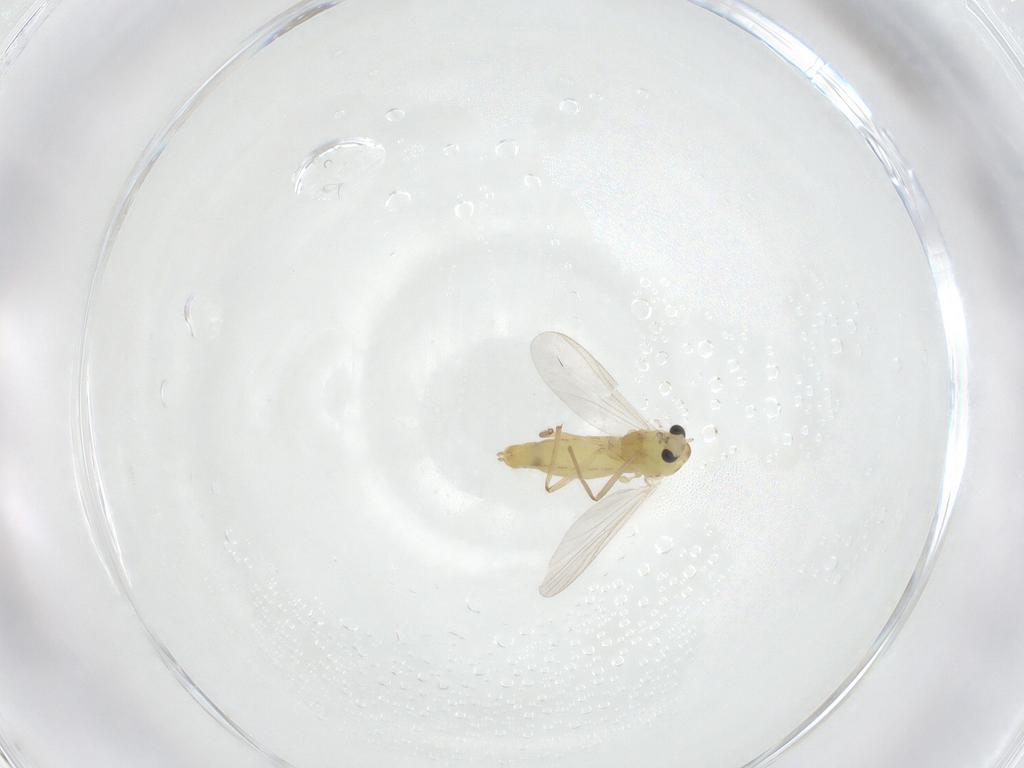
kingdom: Animalia
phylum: Arthropoda
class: Insecta
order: Diptera
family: Chironomidae
